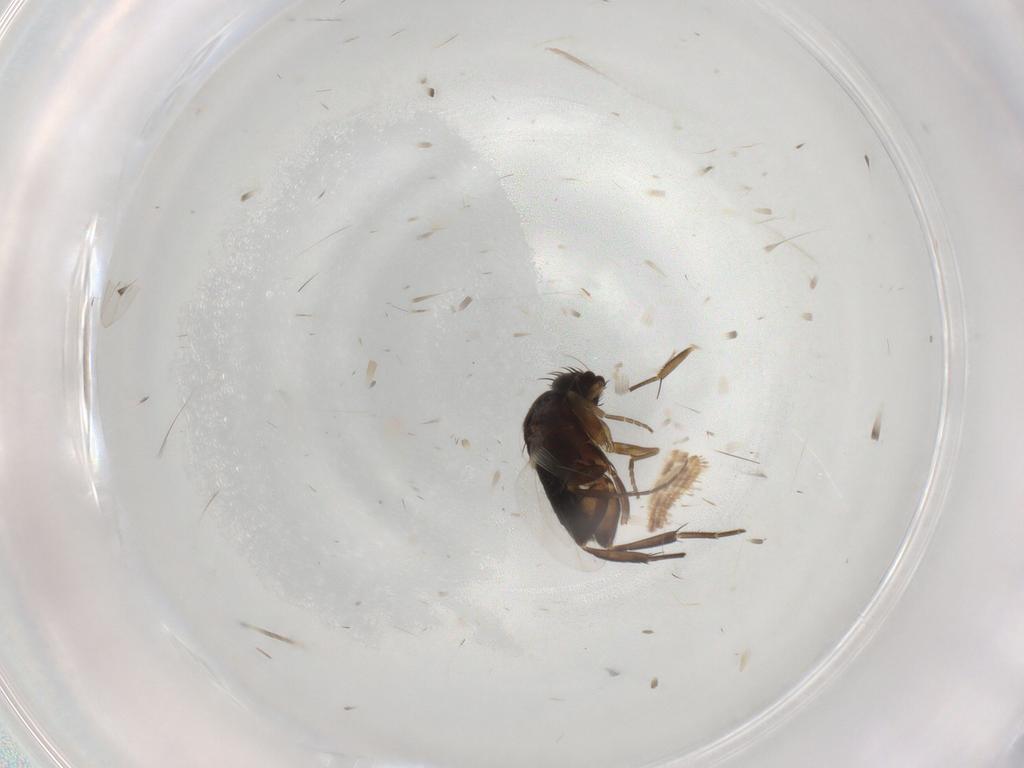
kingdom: Animalia
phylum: Arthropoda
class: Insecta
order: Diptera
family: Phoridae
